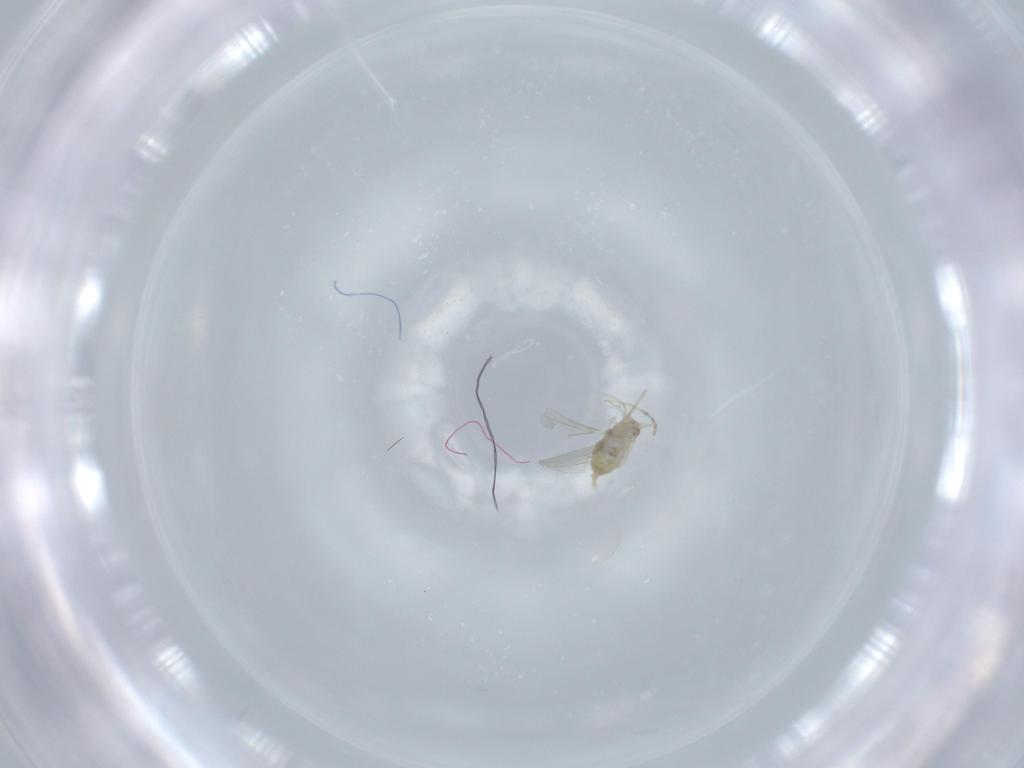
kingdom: Animalia
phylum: Arthropoda
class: Insecta
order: Diptera
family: Cecidomyiidae
